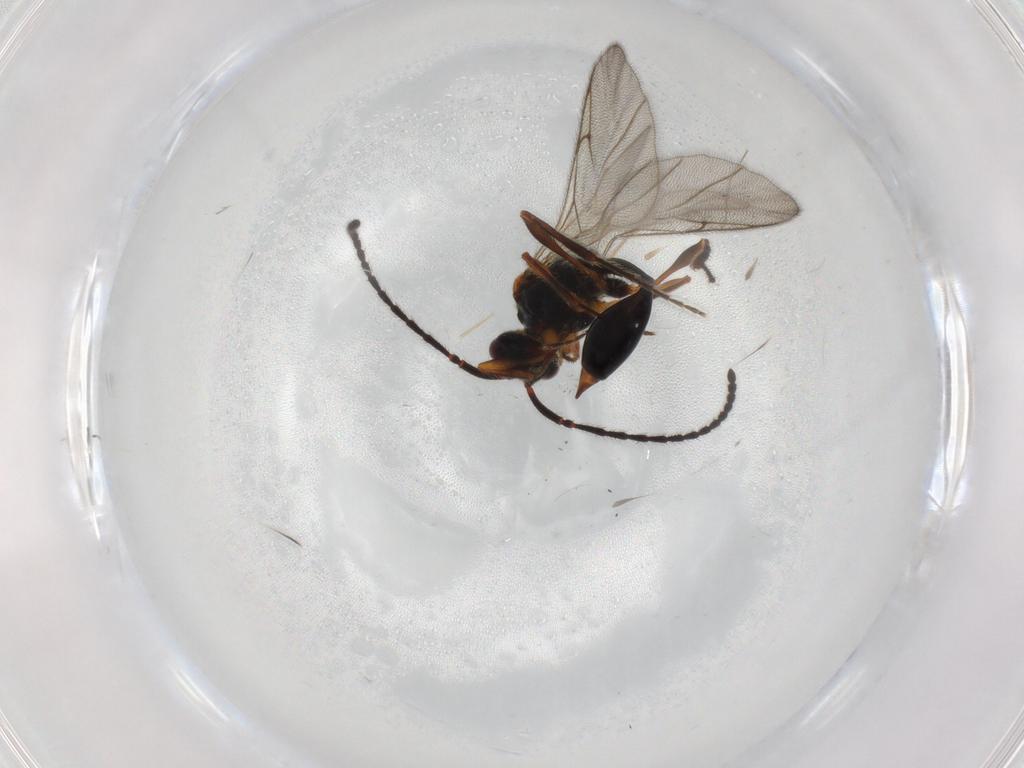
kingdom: Animalia
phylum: Arthropoda
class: Insecta
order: Hymenoptera
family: Diapriidae
